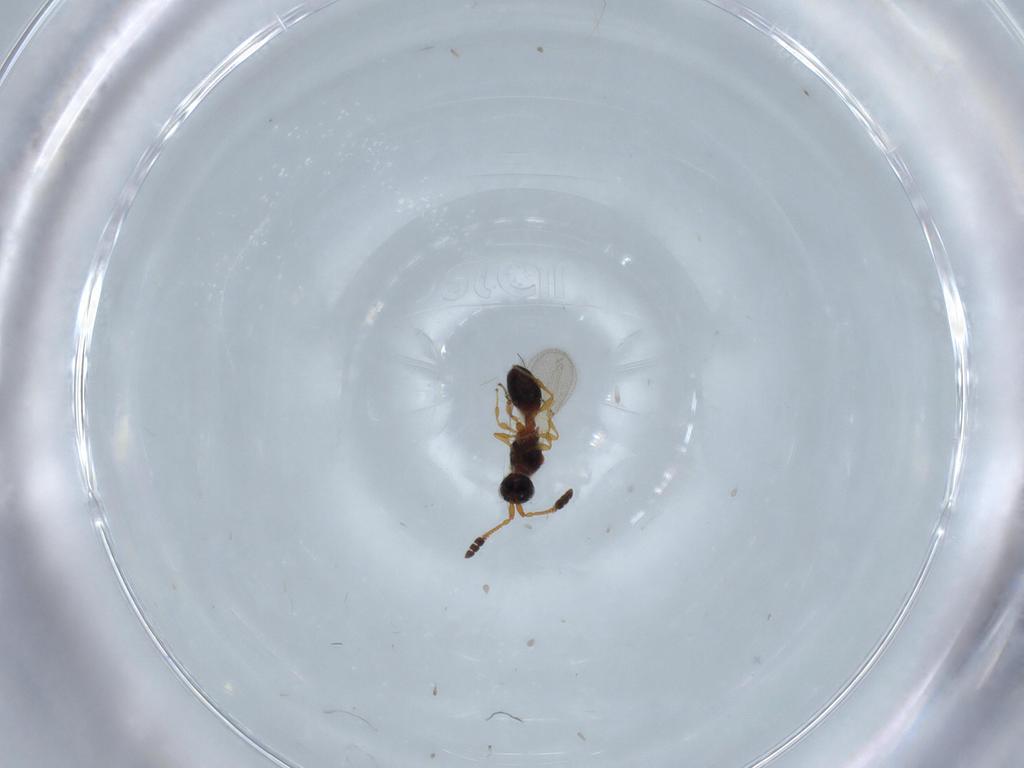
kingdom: Animalia
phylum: Arthropoda
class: Insecta
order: Hymenoptera
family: Diapriidae
